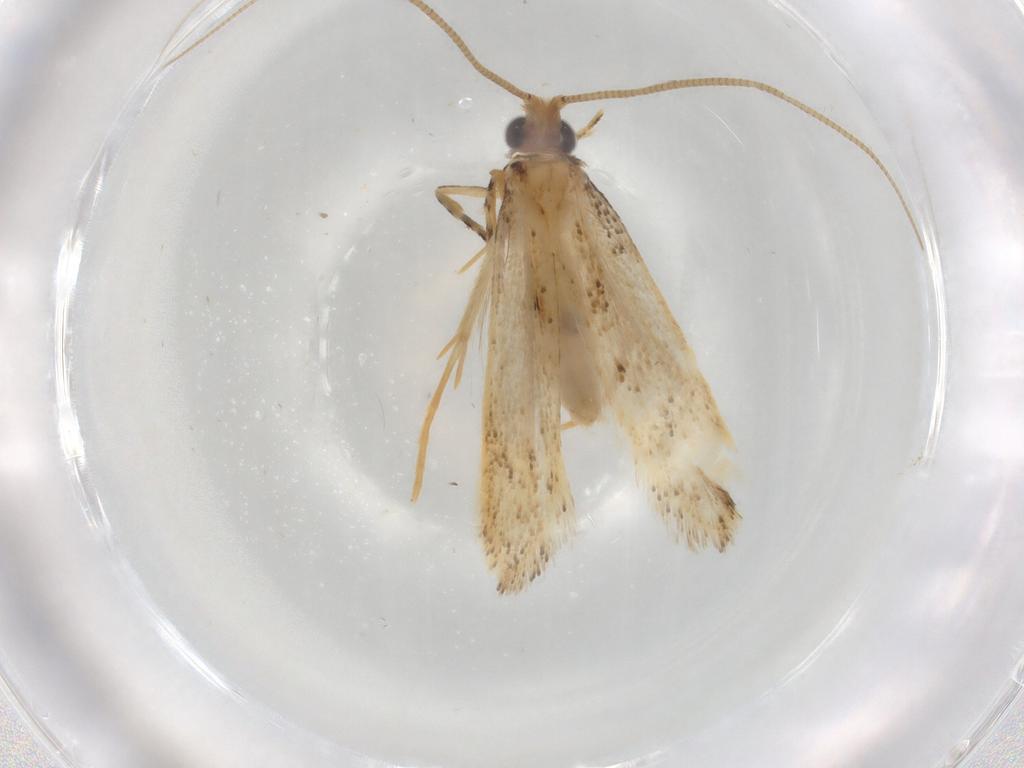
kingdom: Animalia
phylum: Arthropoda
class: Insecta
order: Lepidoptera
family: Nepticulidae
